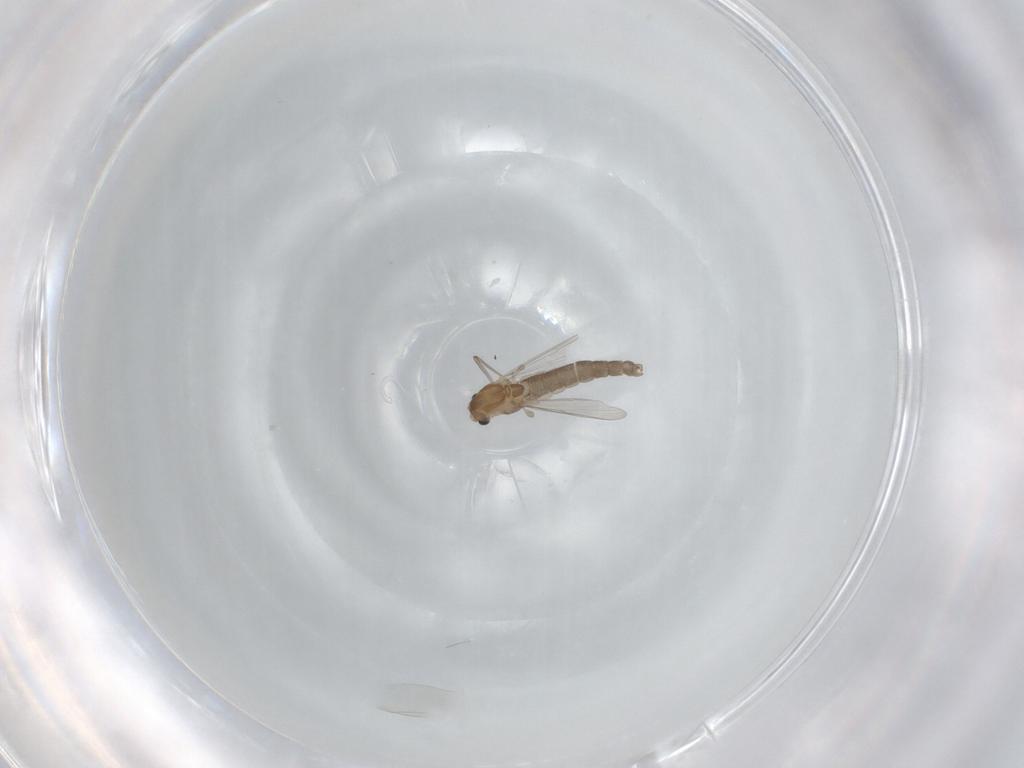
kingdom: Animalia
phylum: Arthropoda
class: Insecta
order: Diptera
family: Chironomidae
